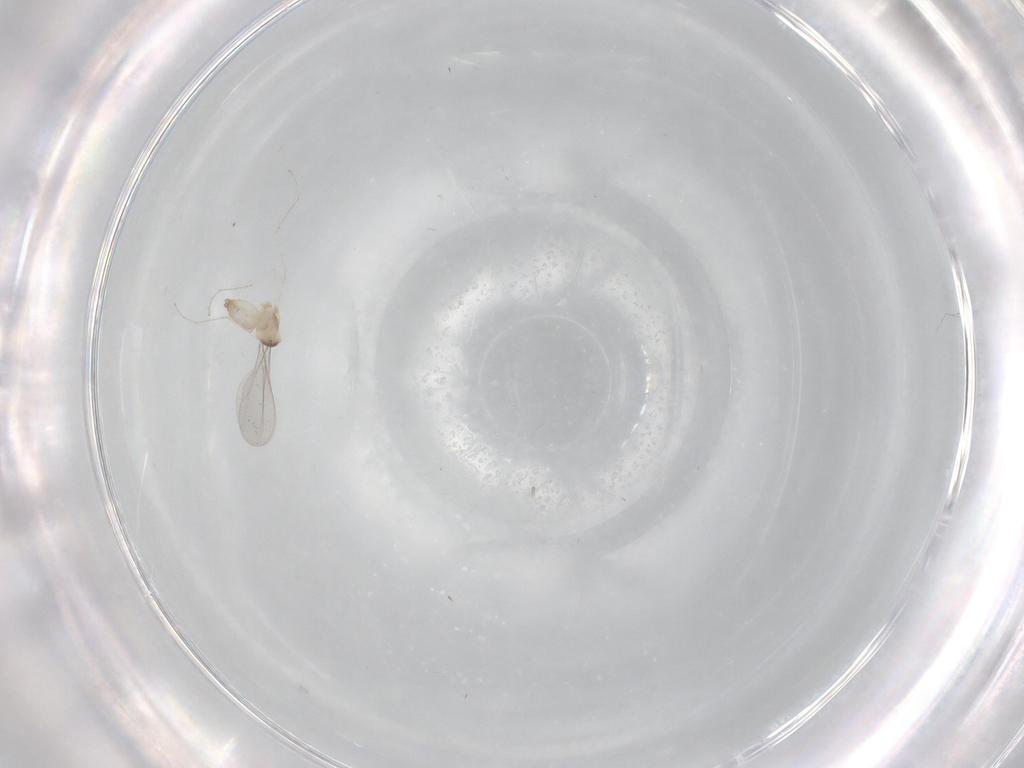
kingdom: Animalia
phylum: Arthropoda
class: Insecta
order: Diptera
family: Cecidomyiidae
